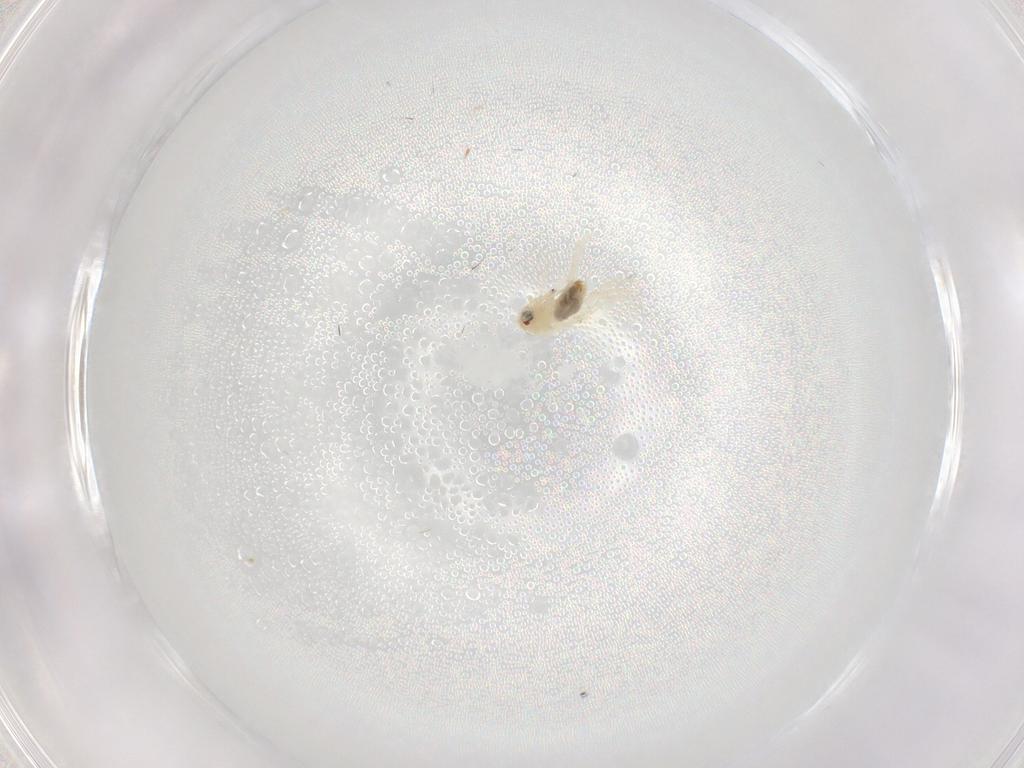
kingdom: Animalia
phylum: Arthropoda
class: Insecta
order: Hemiptera
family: Aleyrodidae
